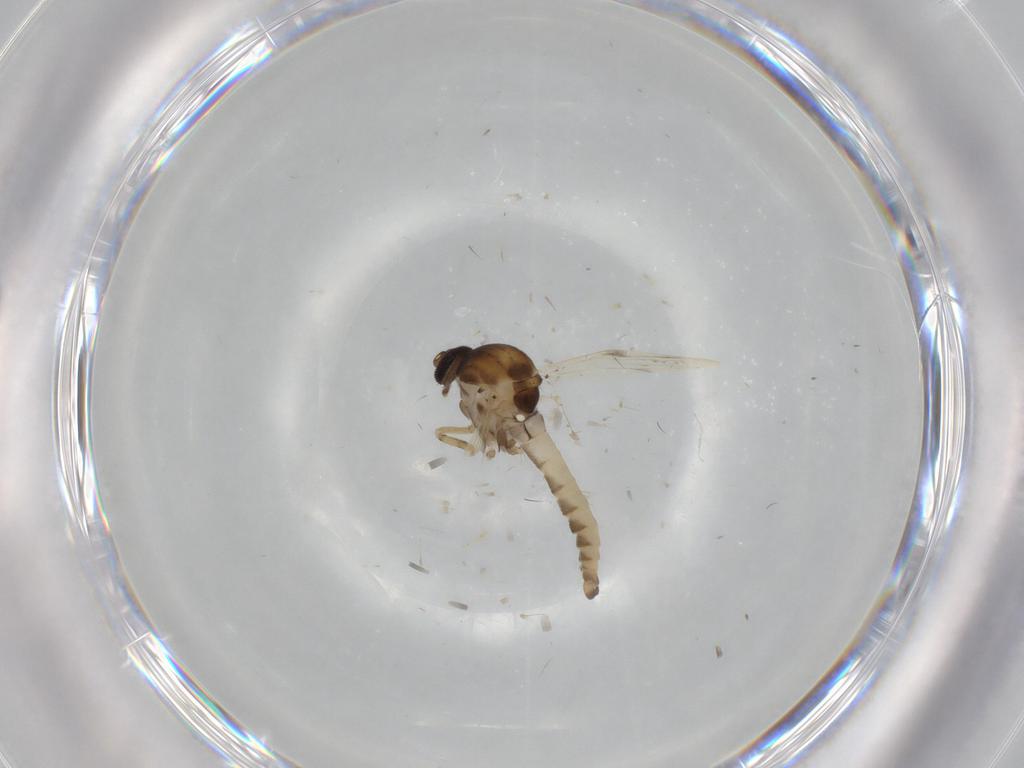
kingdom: Animalia
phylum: Arthropoda
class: Insecta
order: Diptera
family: Ceratopogonidae
